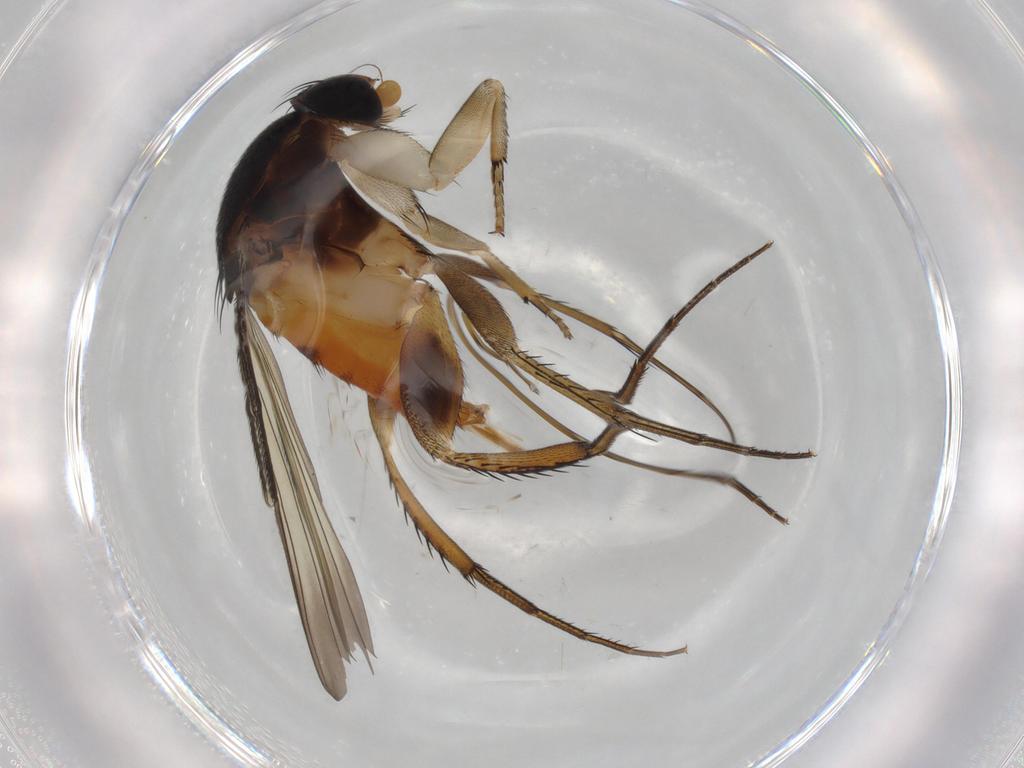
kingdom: Animalia
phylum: Arthropoda
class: Insecta
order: Diptera
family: Phoridae
